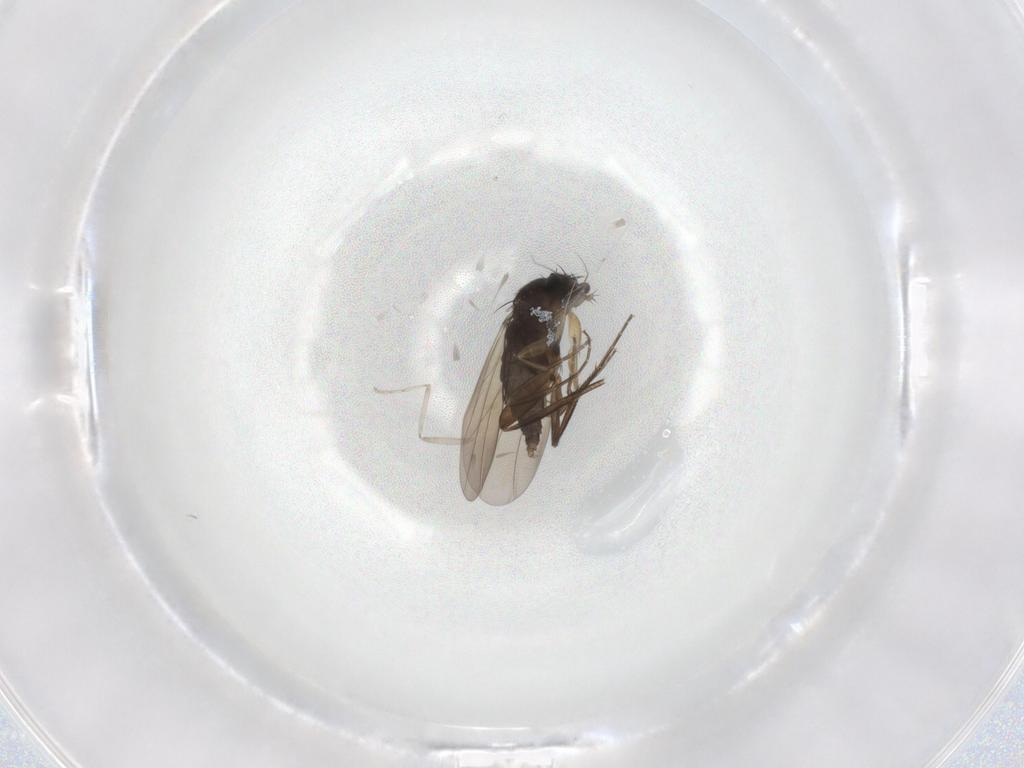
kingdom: Animalia
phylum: Arthropoda
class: Insecta
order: Diptera
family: Phoridae
